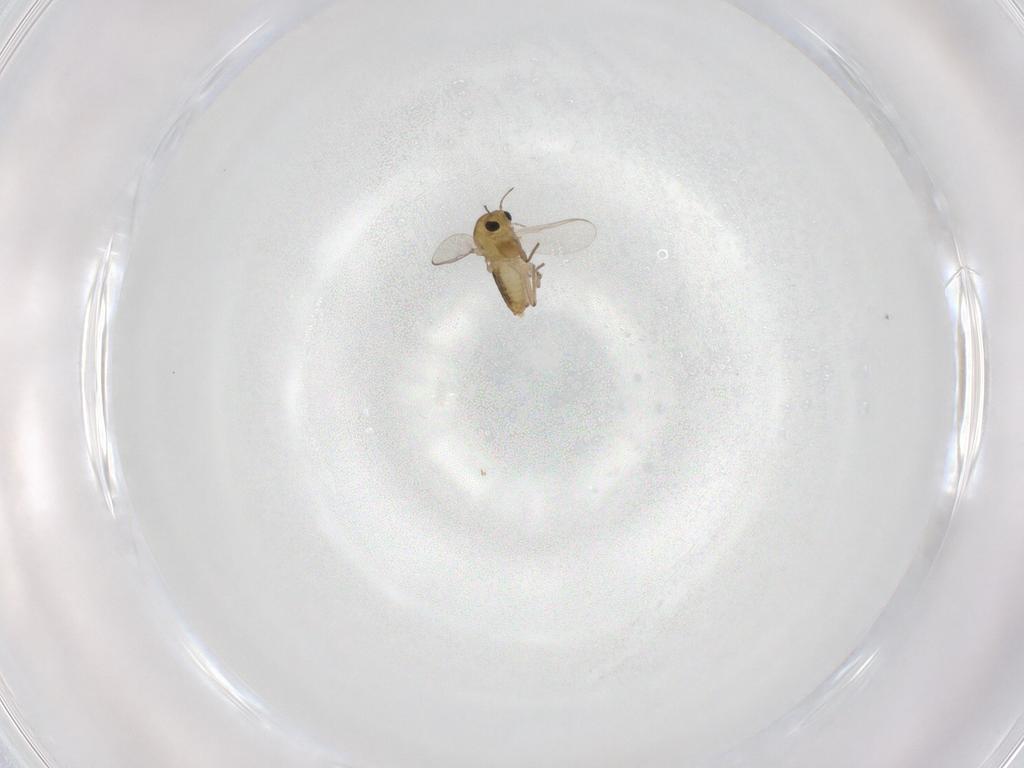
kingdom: Animalia
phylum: Arthropoda
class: Insecta
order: Diptera
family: Chironomidae
